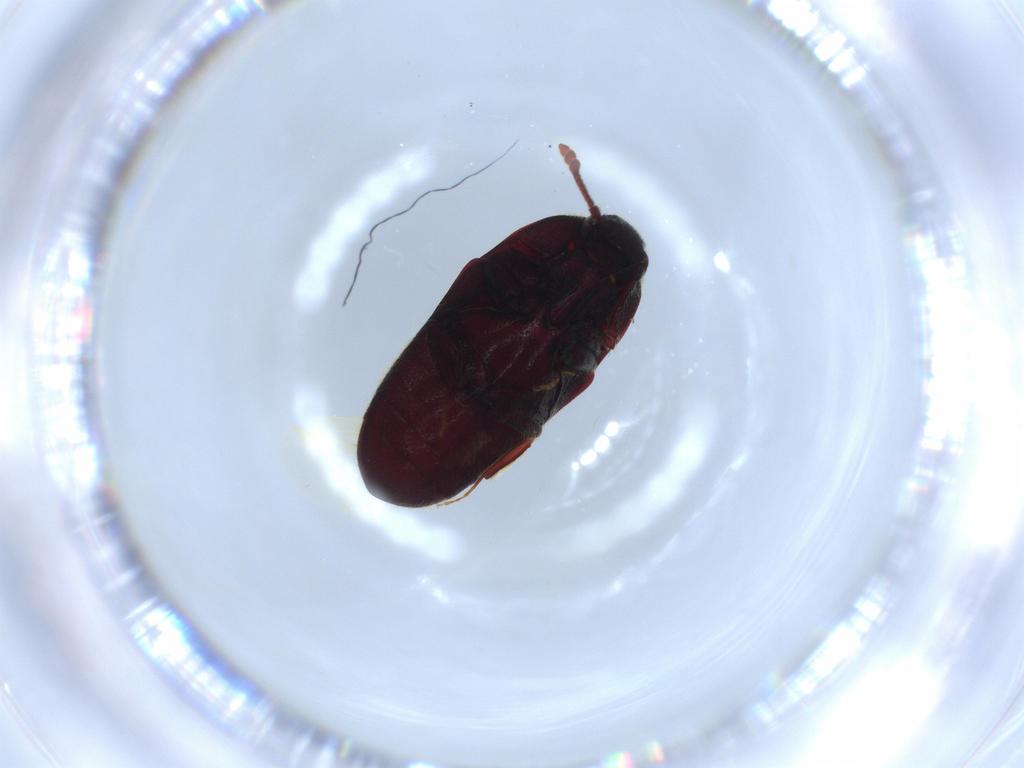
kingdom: Animalia
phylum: Arthropoda
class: Insecta
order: Coleoptera
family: Throscidae
